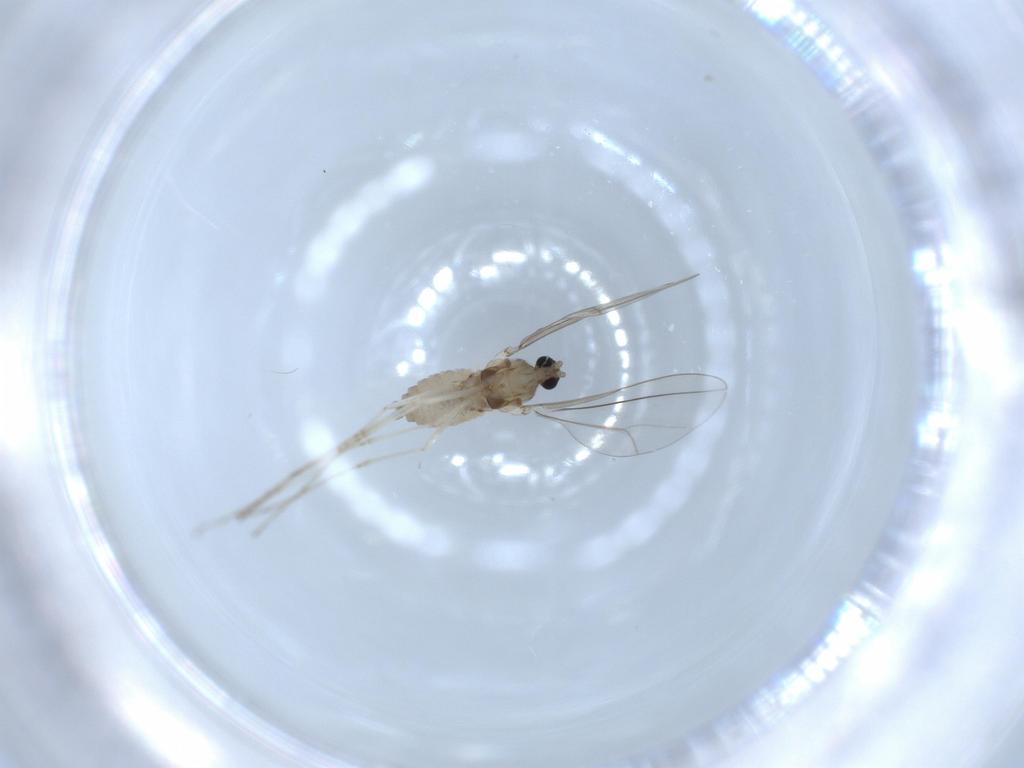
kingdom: Animalia
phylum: Arthropoda
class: Insecta
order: Diptera
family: Cecidomyiidae
